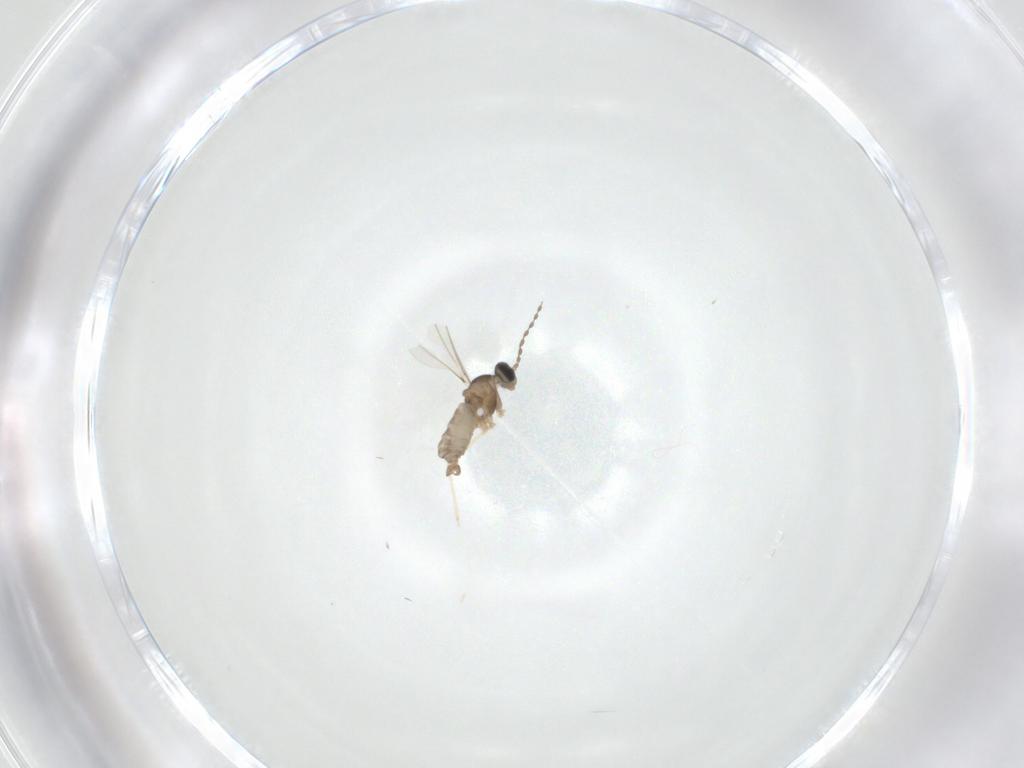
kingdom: Animalia
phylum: Arthropoda
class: Insecta
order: Diptera
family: Cecidomyiidae
